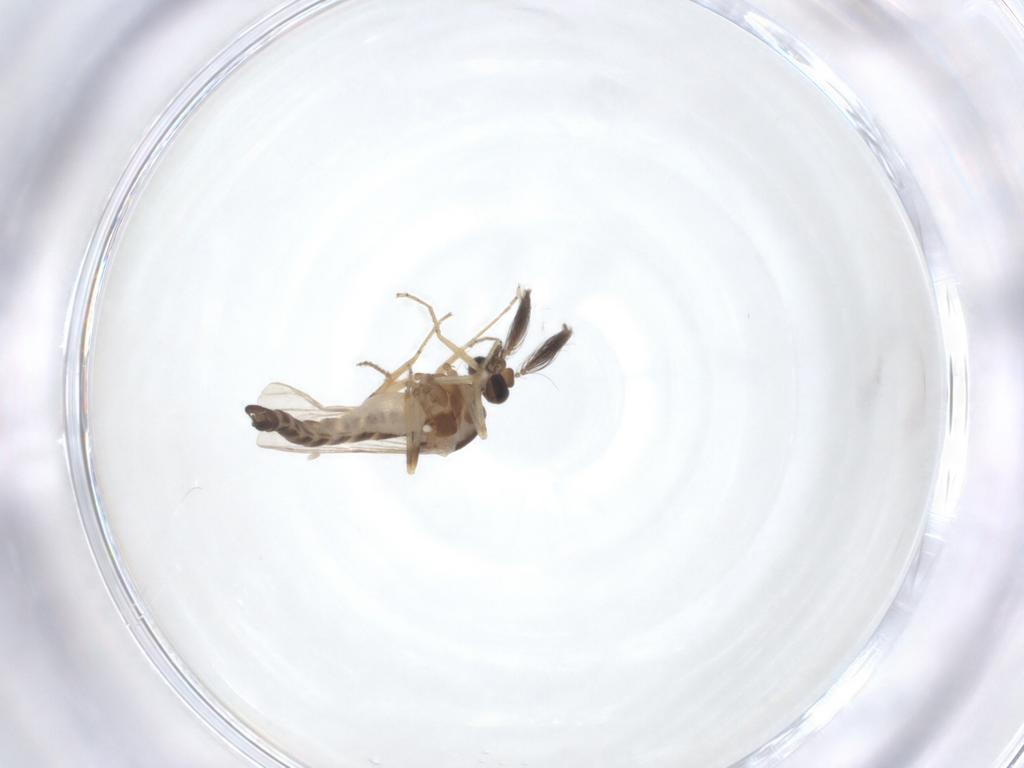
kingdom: Animalia
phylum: Arthropoda
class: Insecta
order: Diptera
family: Ceratopogonidae
